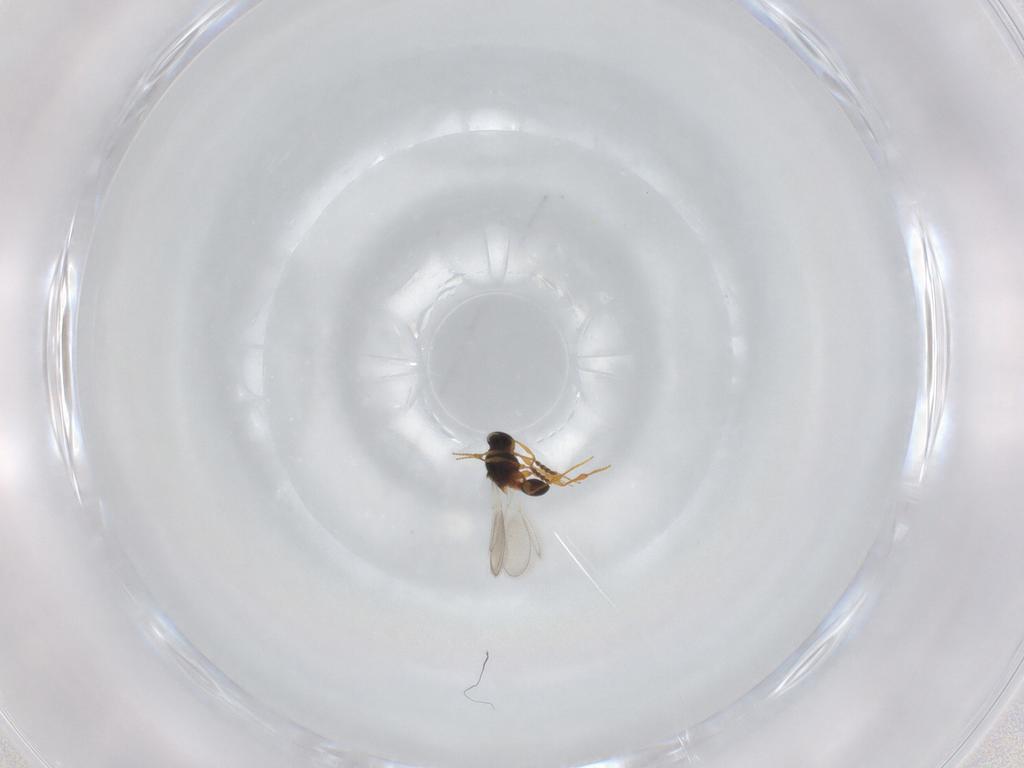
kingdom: Animalia
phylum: Arthropoda
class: Insecta
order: Hymenoptera
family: Platygastridae
